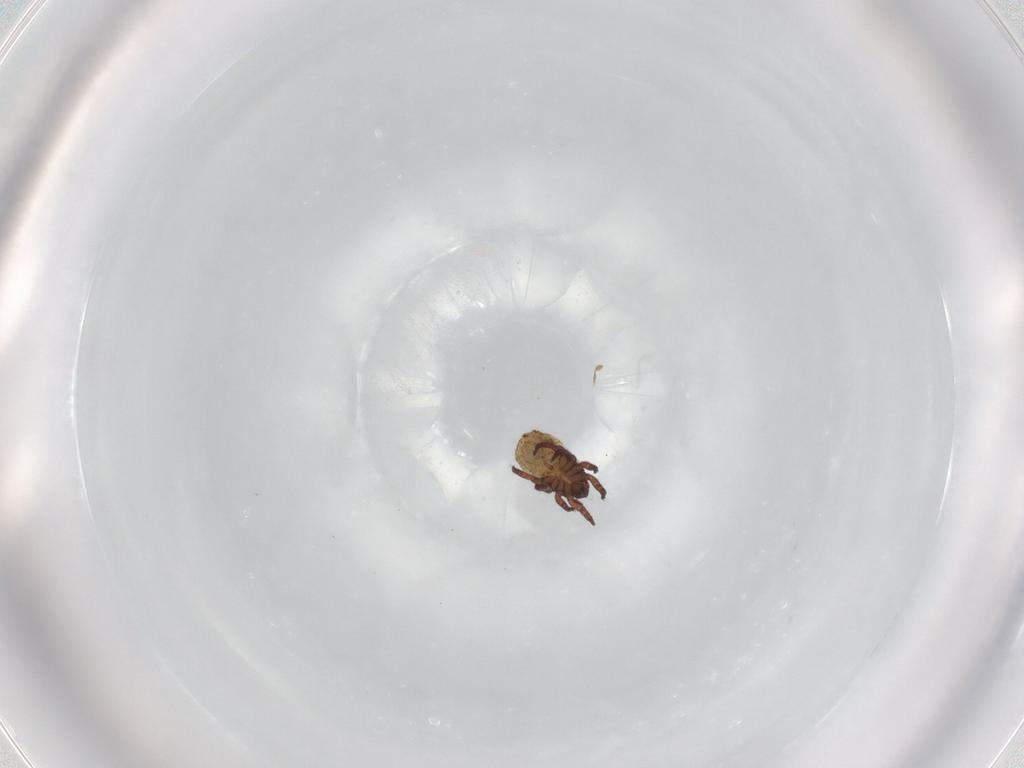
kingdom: Animalia
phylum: Arthropoda
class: Arachnida
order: Sarcoptiformes
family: Oribatulidae
